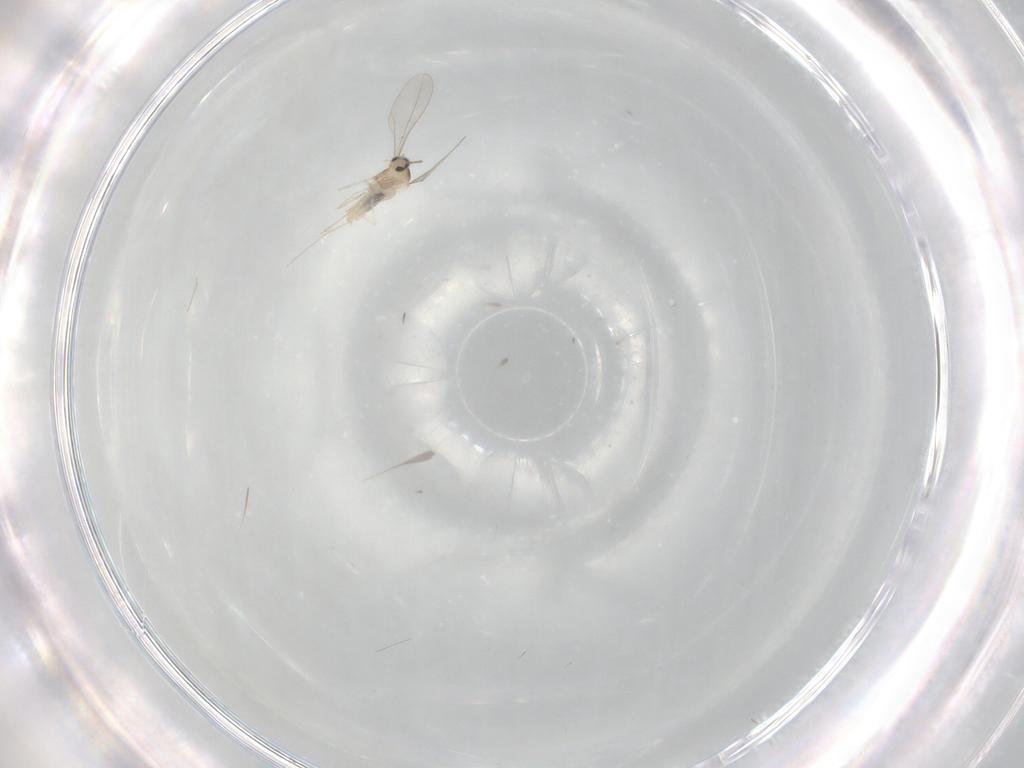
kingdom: Animalia
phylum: Arthropoda
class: Insecta
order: Diptera
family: Cecidomyiidae
